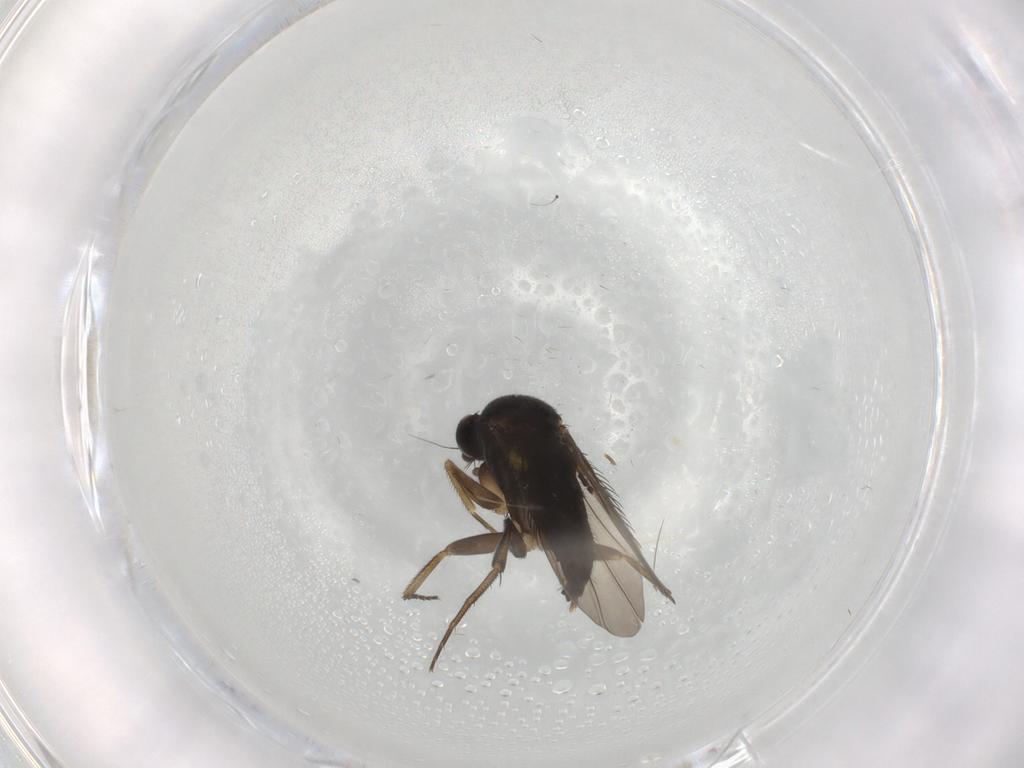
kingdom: Animalia
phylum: Arthropoda
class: Insecta
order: Diptera
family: Phoridae
